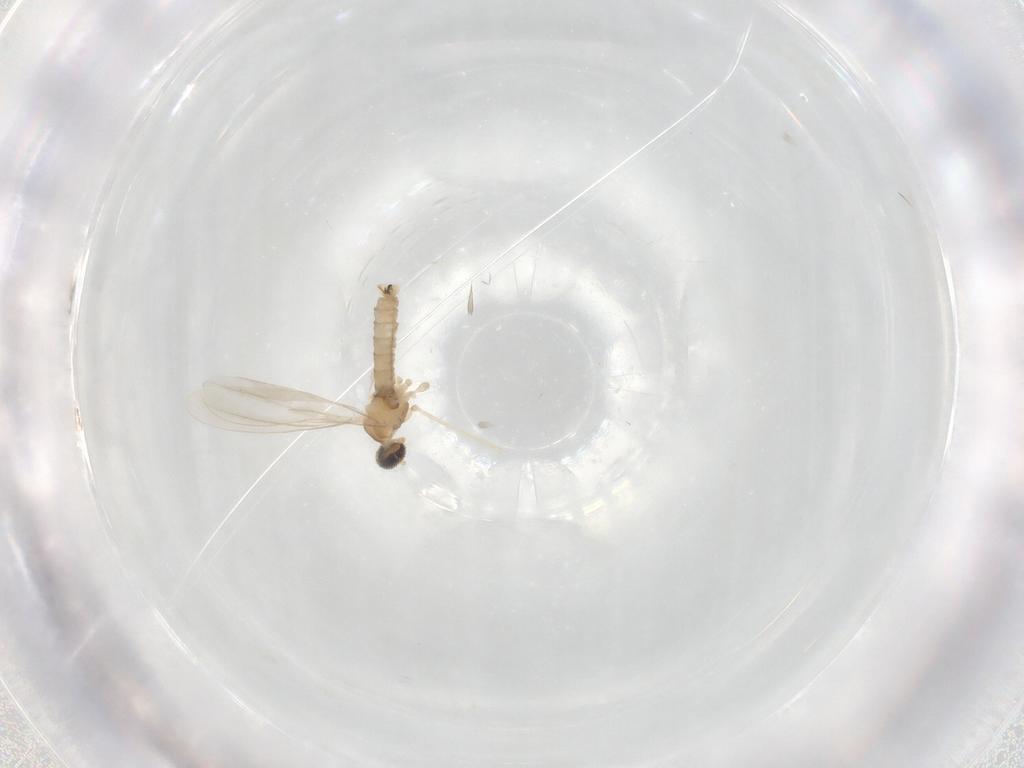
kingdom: Animalia
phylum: Arthropoda
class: Insecta
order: Diptera
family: Cecidomyiidae
